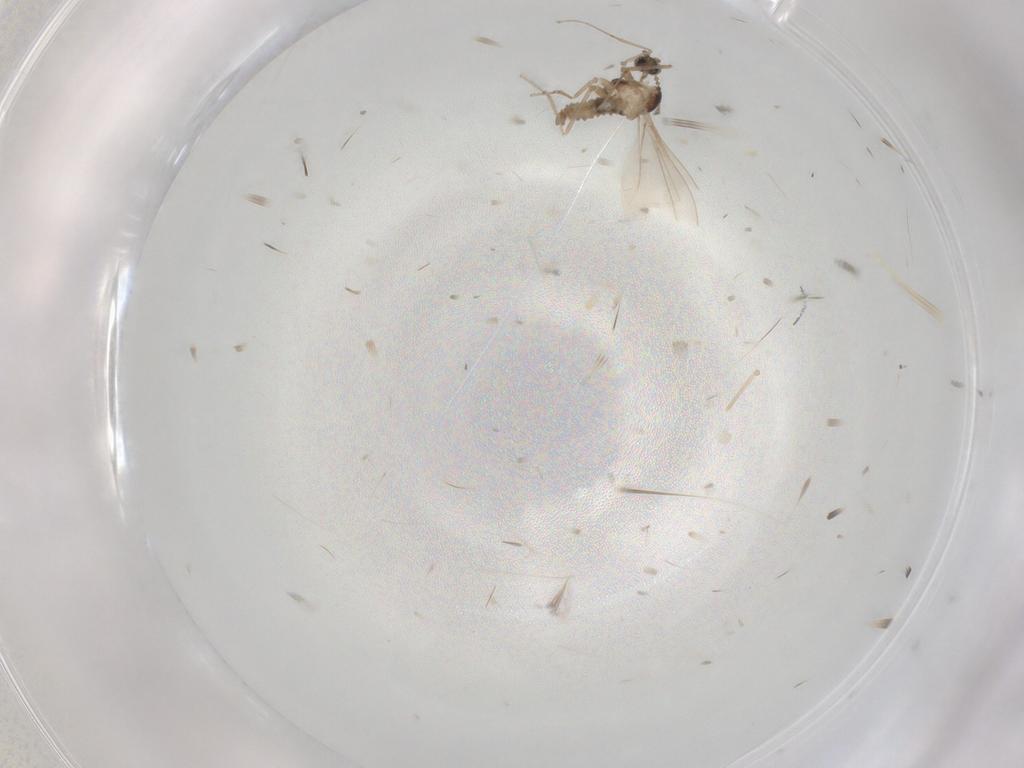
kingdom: Animalia
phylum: Arthropoda
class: Insecta
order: Diptera
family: Cecidomyiidae
